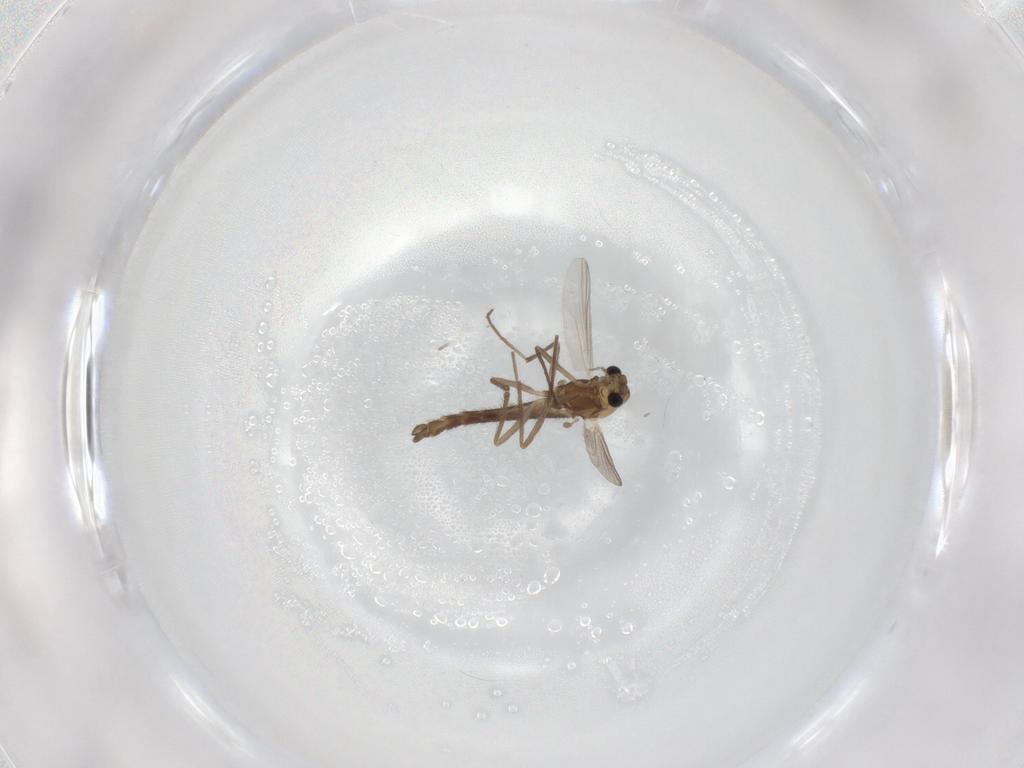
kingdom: Animalia
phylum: Arthropoda
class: Insecta
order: Diptera
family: Chironomidae
